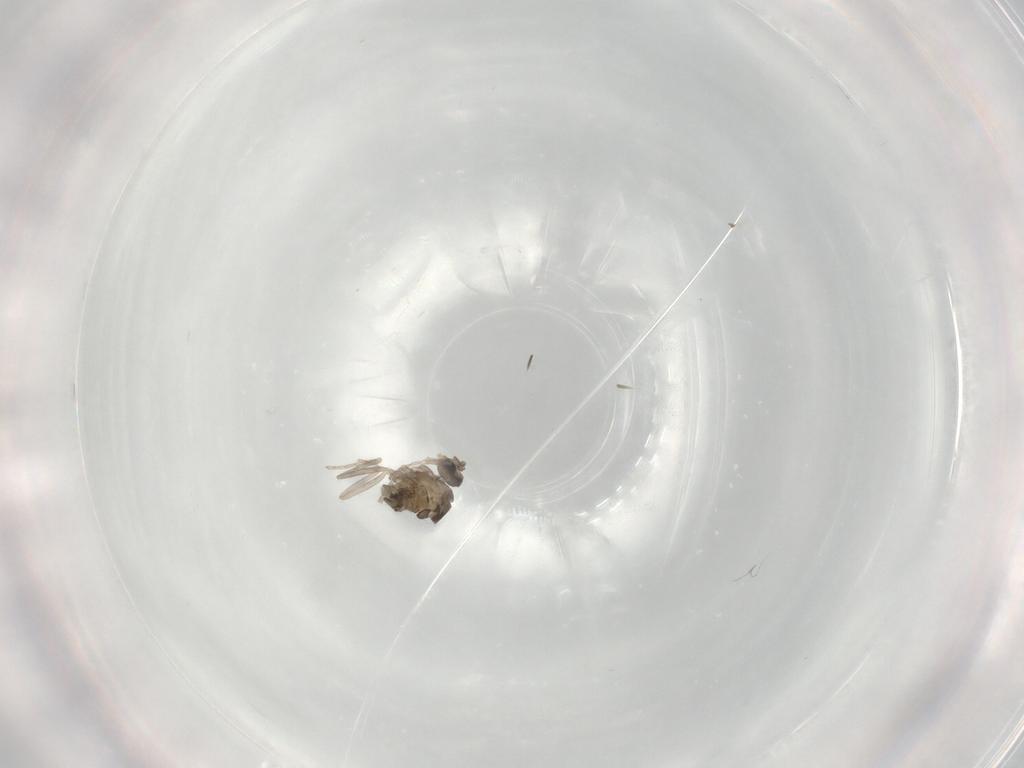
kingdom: Animalia
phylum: Arthropoda
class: Insecta
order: Diptera
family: Cecidomyiidae
